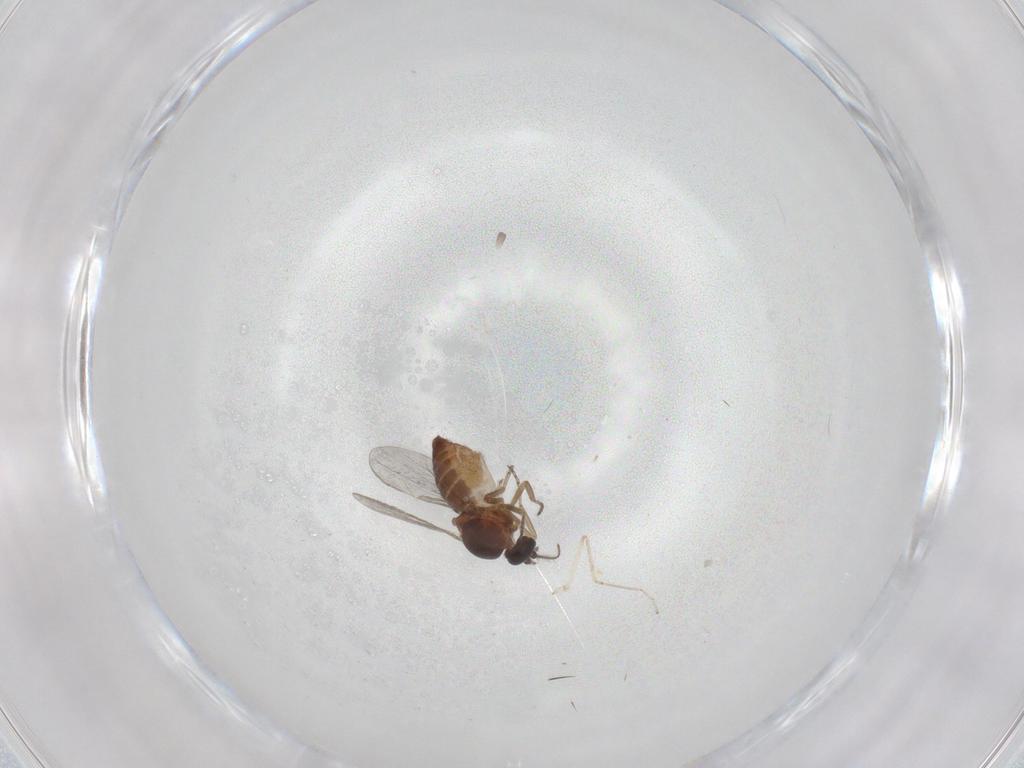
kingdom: Animalia
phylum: Arthropoda
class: Insecta
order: Diptera
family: Ceratopogonidae
